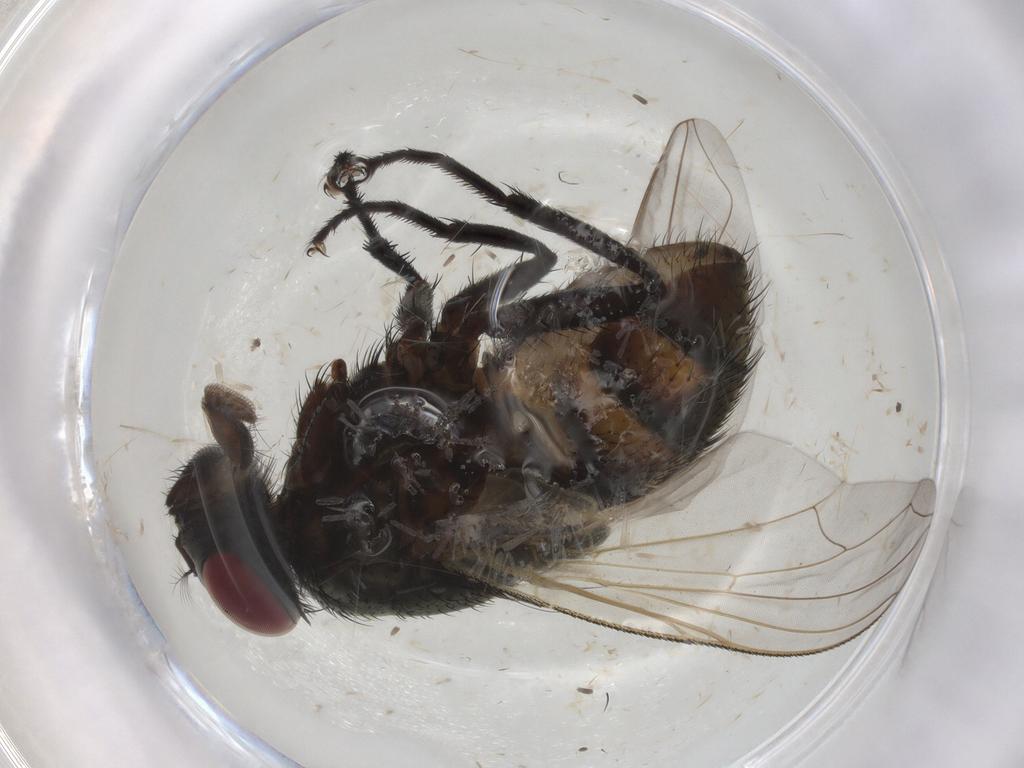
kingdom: Animalia
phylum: Arthropoda
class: Insecta
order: Diptera
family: Muscidae
